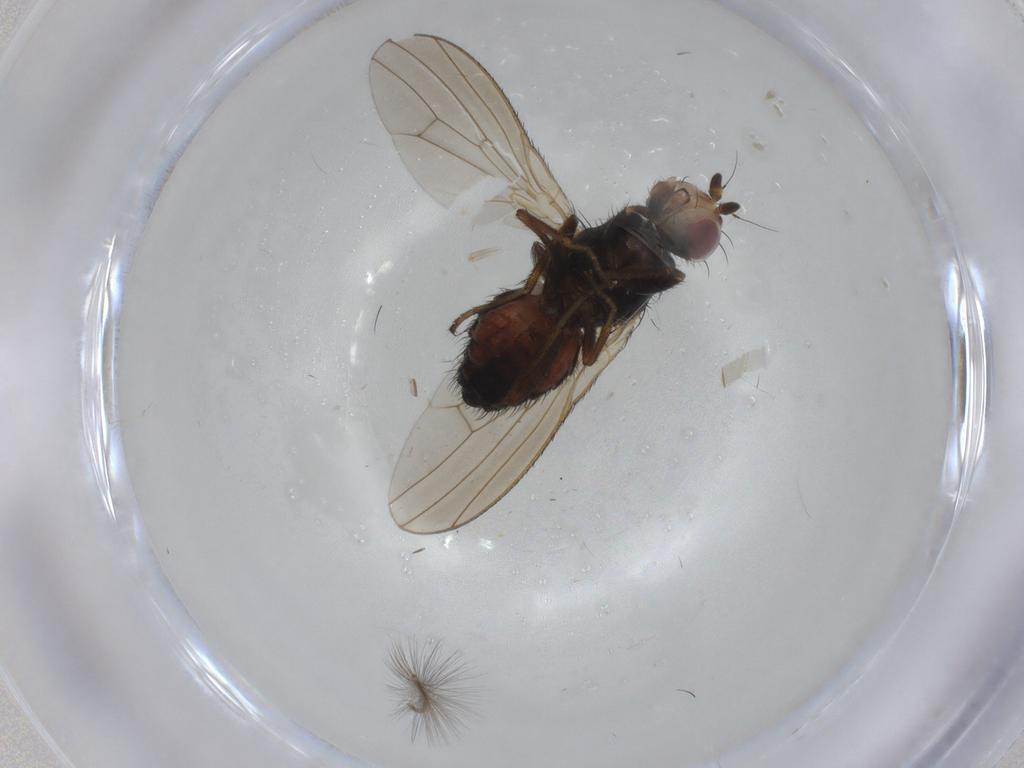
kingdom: Animalia
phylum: Arthropoda
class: Insecta
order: Diptera
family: Heleomyzidae
